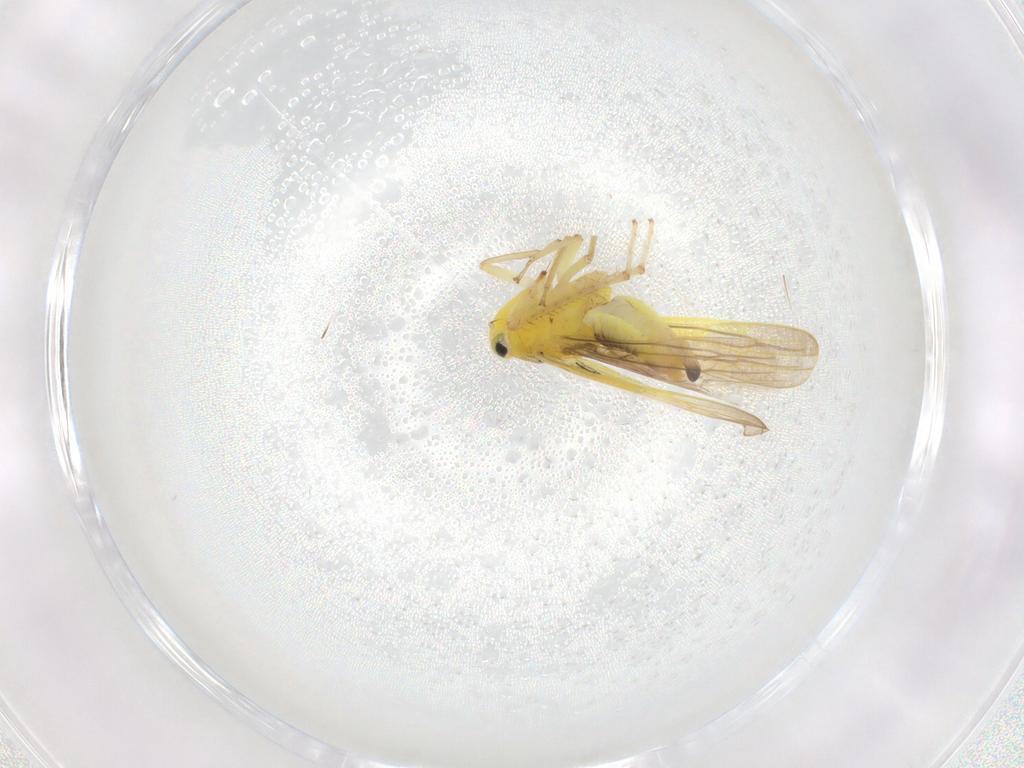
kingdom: Animalia
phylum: Arthropoda
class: Insecta
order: Hemiptera
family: Cicadellidae
